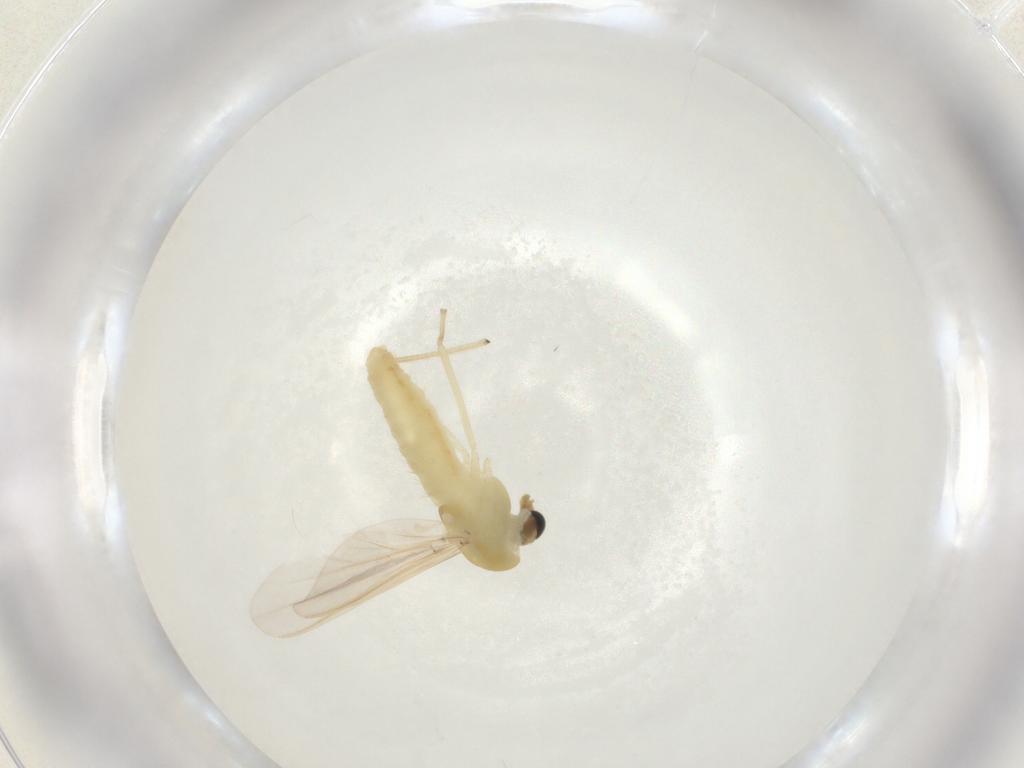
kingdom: Animalia
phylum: Arthropoda
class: Insecta
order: Diptera
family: Chironomidae
